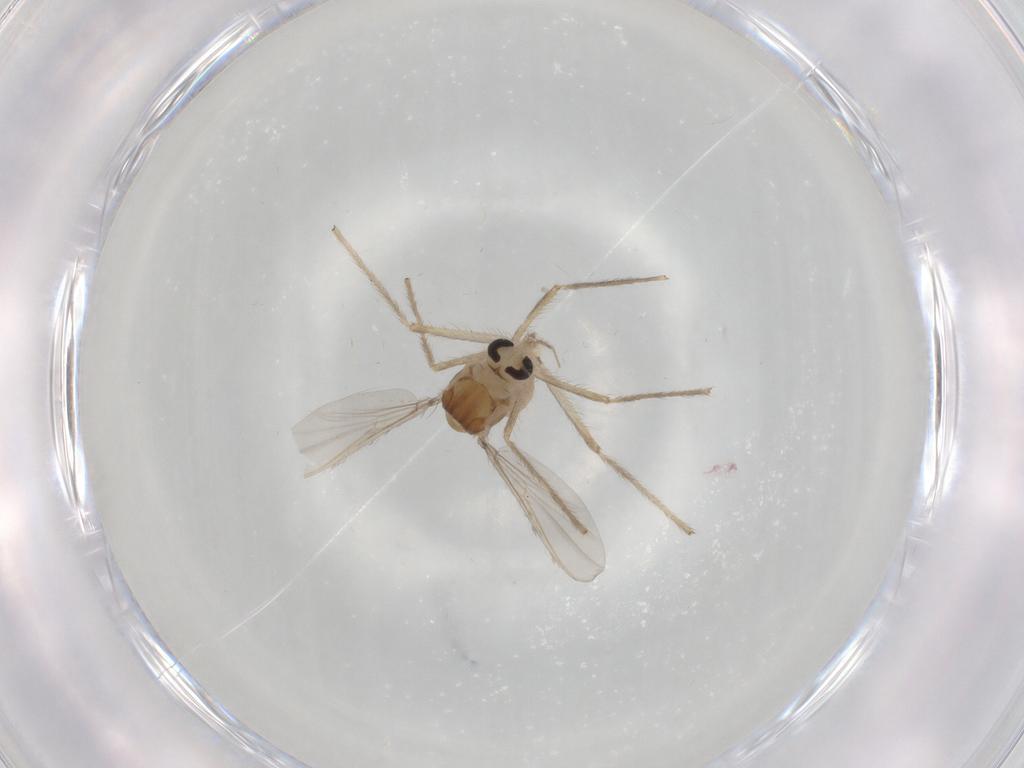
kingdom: Animalia
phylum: Arthropoda
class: Insecta
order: Diptera
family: Chironomidae
